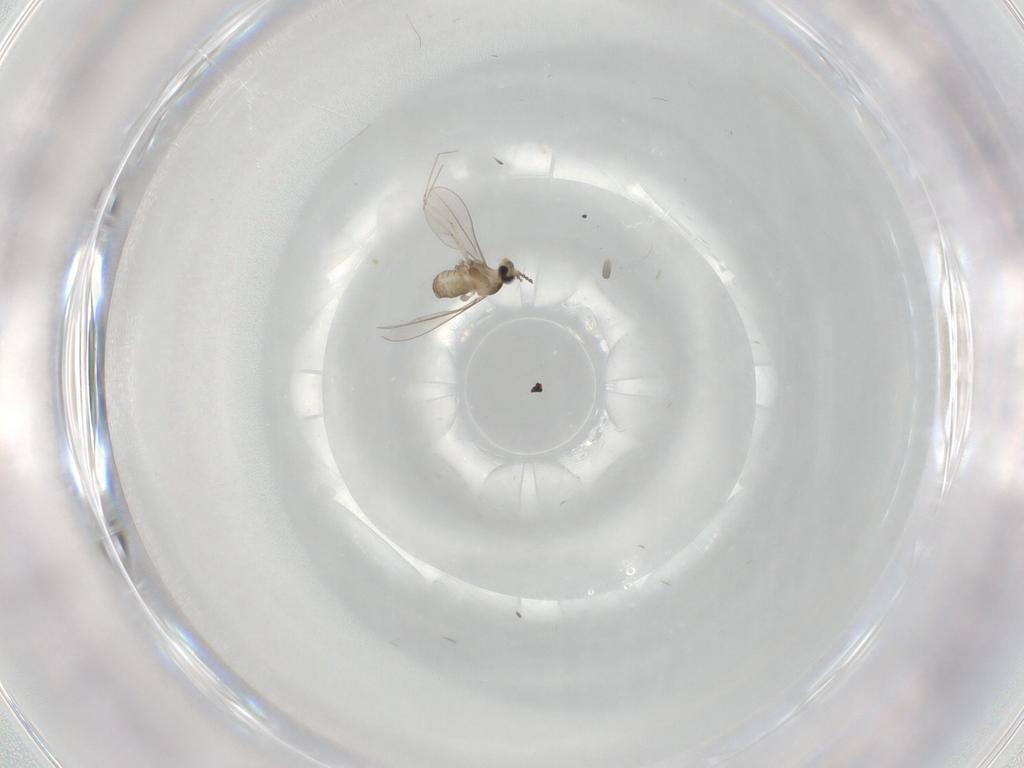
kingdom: Animalia
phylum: Arthropoda
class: Insecta
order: Diptera
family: Cecidomyiidae
